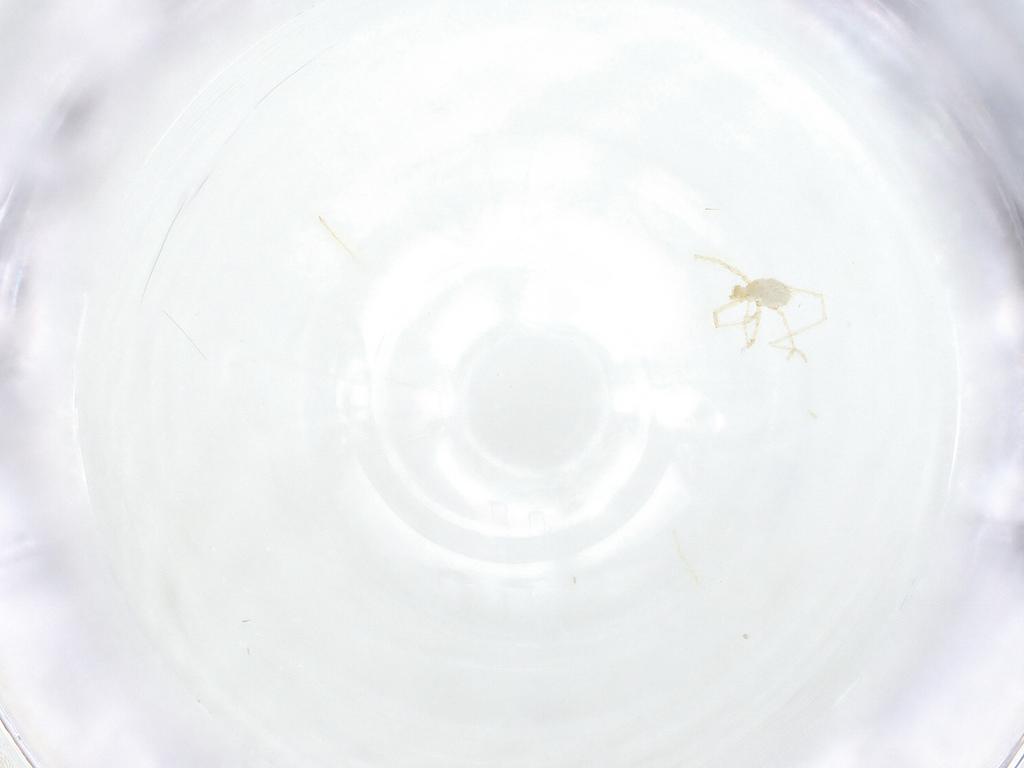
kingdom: Animalia
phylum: Arthropoda
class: Arachnida
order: Trombidiformes
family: Erythraeidae
